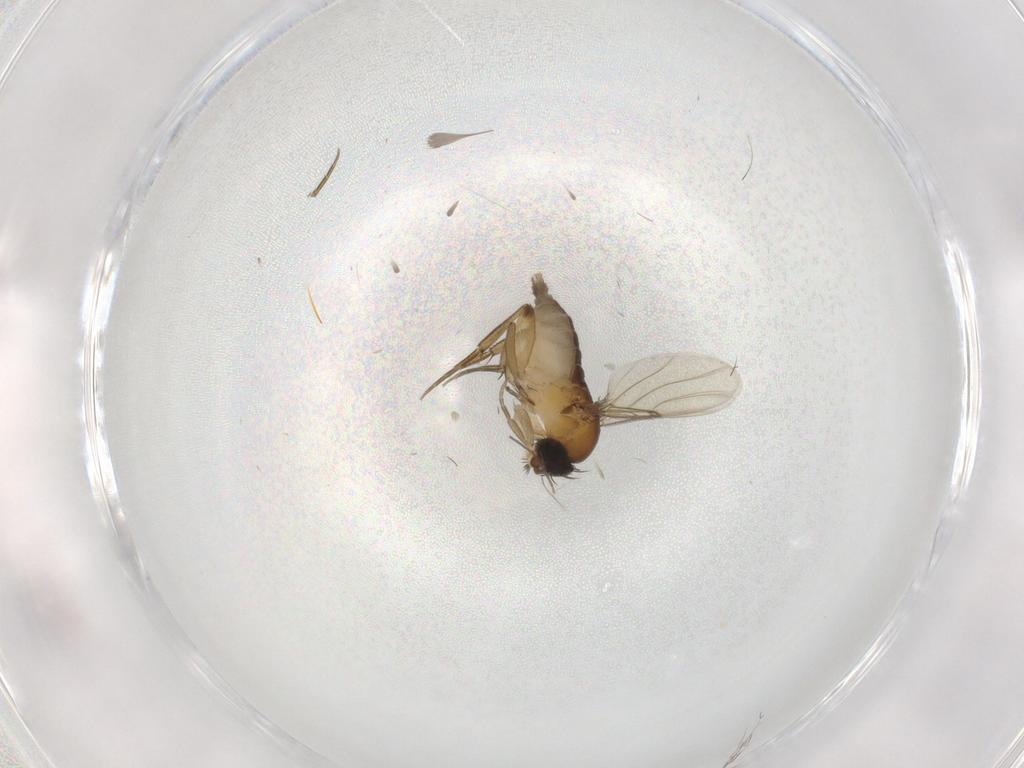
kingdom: Animalia
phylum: Arthropoda
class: Insecta
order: Diptera
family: Phoridae
